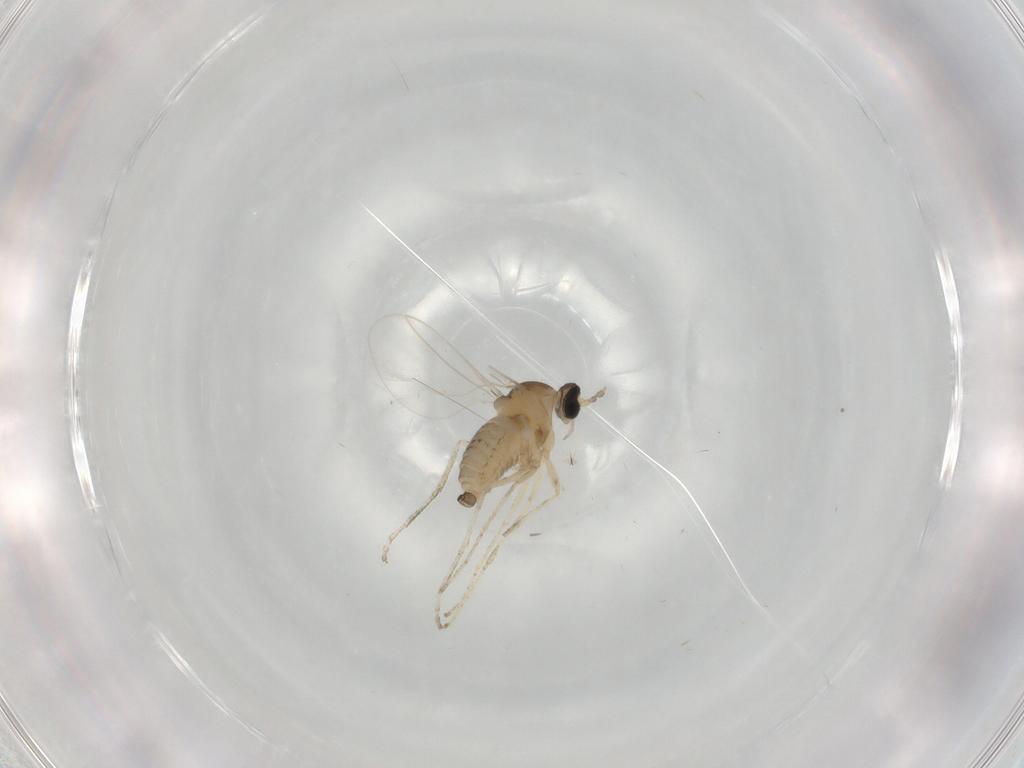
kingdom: Animalia
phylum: Arthropoda
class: Insecta
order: Diptera
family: Cecidomyiidae
